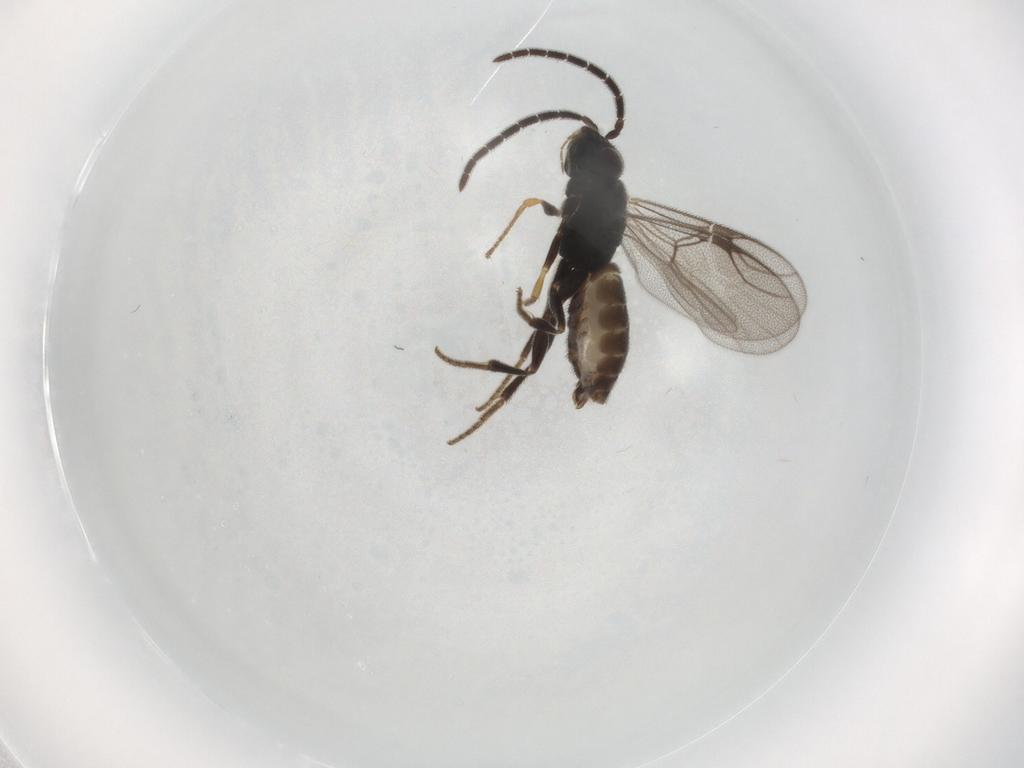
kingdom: Animalia
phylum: Arthropoda
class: Insecta
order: Hymenoptera
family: Dryinidae
